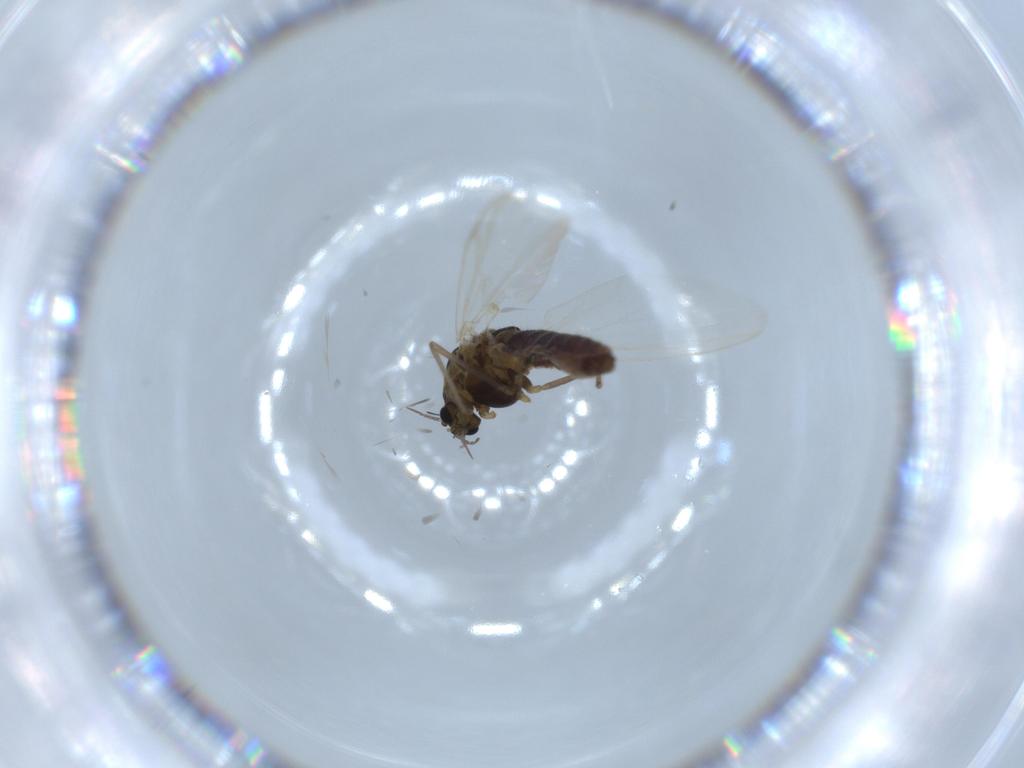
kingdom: Animalia
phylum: Arthropoda
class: Insecta
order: Diptera
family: Chironomidae
